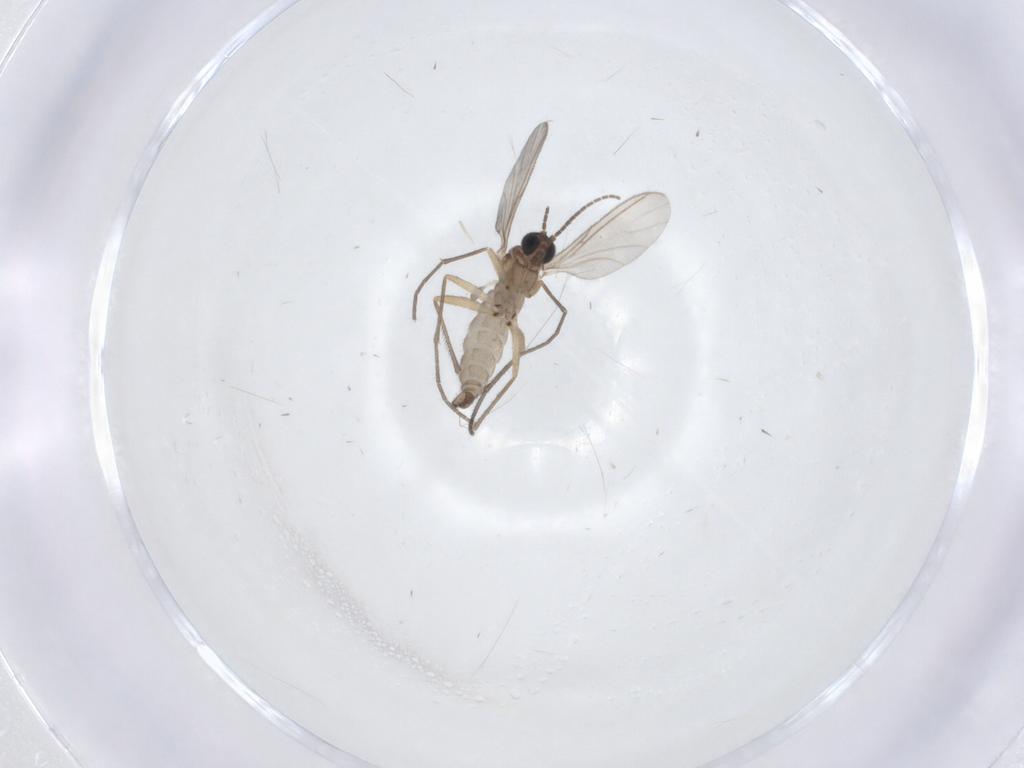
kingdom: Animalia
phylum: Arthropoda
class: Insecta
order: Diptera
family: Sciaridae
